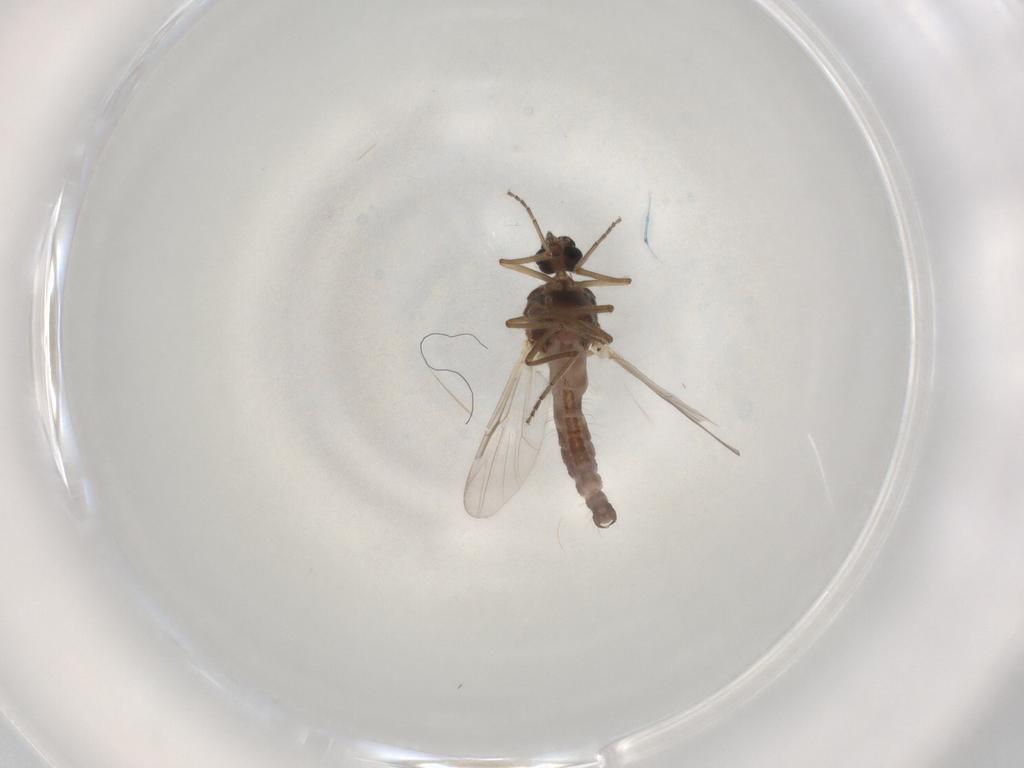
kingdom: Animalia
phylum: Arthropoda
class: Insecta
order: Diptera
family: Ceratopogonidae
